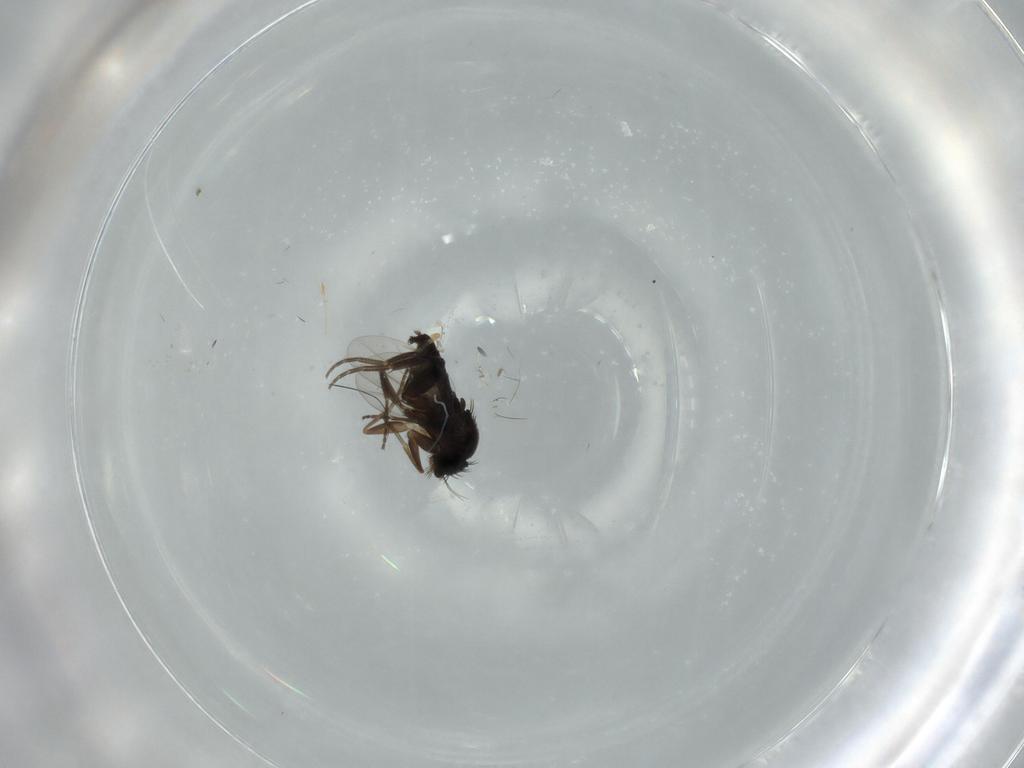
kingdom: Animalia
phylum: Arthropoda
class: Insecta
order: Diptera
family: Phoridae
